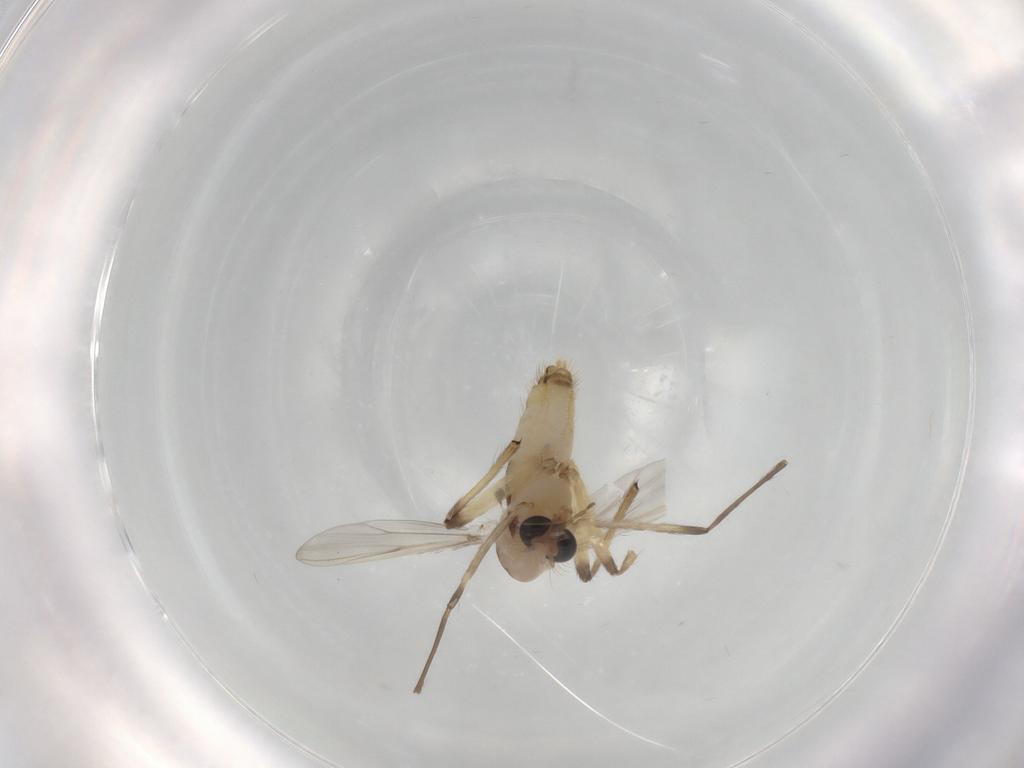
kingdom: Animalia
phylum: Arthropoda
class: Insecta
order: Diptera
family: Chironomidae
